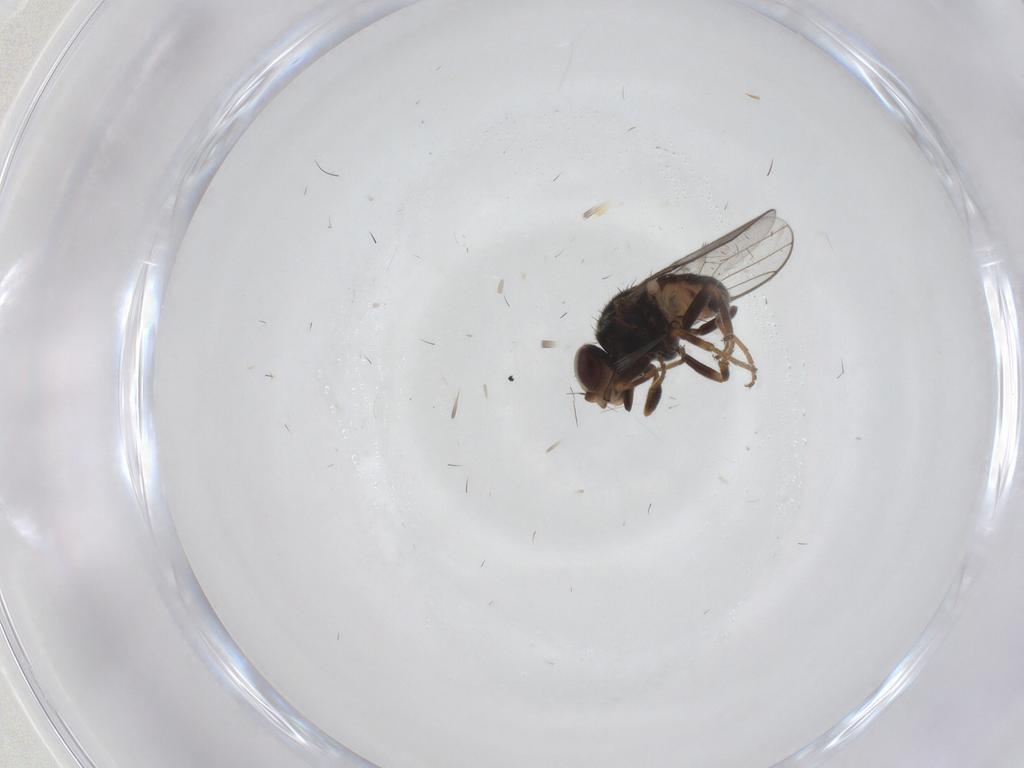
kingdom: Animalia
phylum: Arthropoda
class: Insecta
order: Diptera
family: Chloropidae
